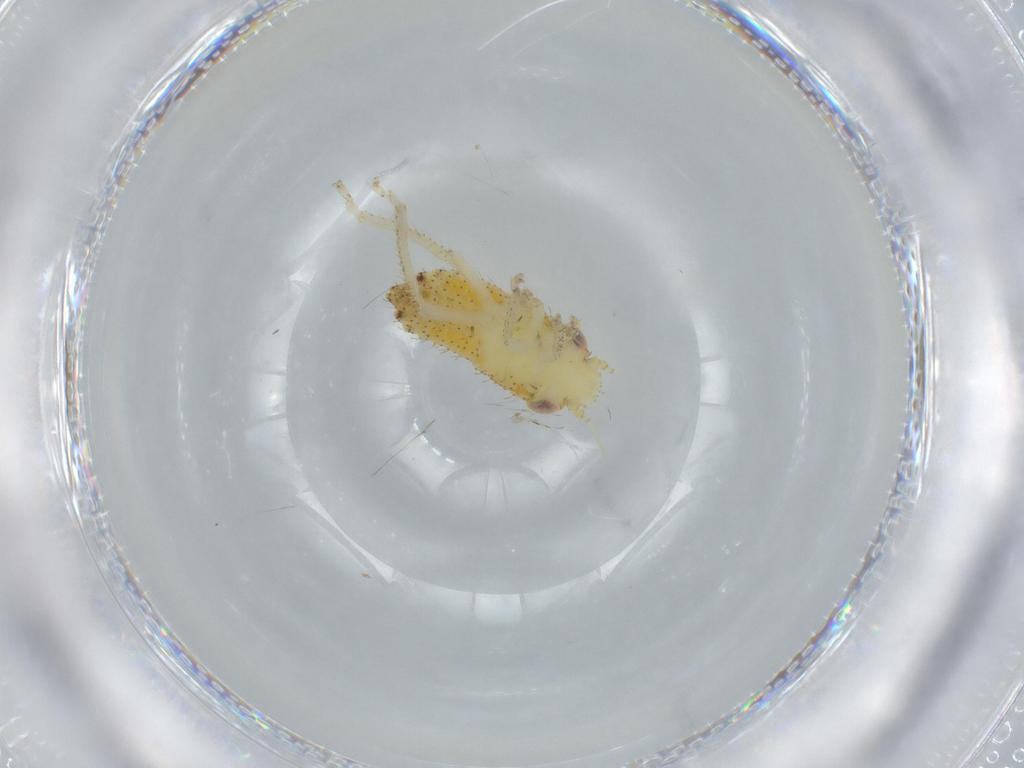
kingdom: Animalia
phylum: Arthropoda
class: Insecta
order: Hemiptera
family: Cicadellidae
